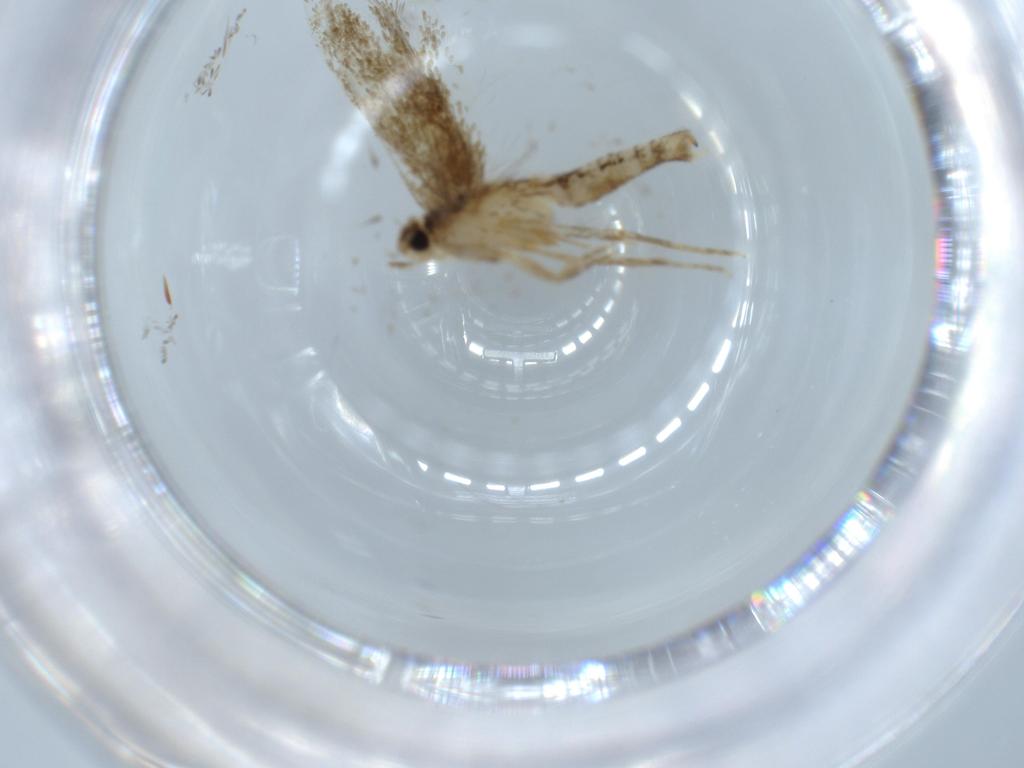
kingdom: Animalia
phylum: Arthropoda
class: Insecta
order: Lepidoptera
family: Tineidae
